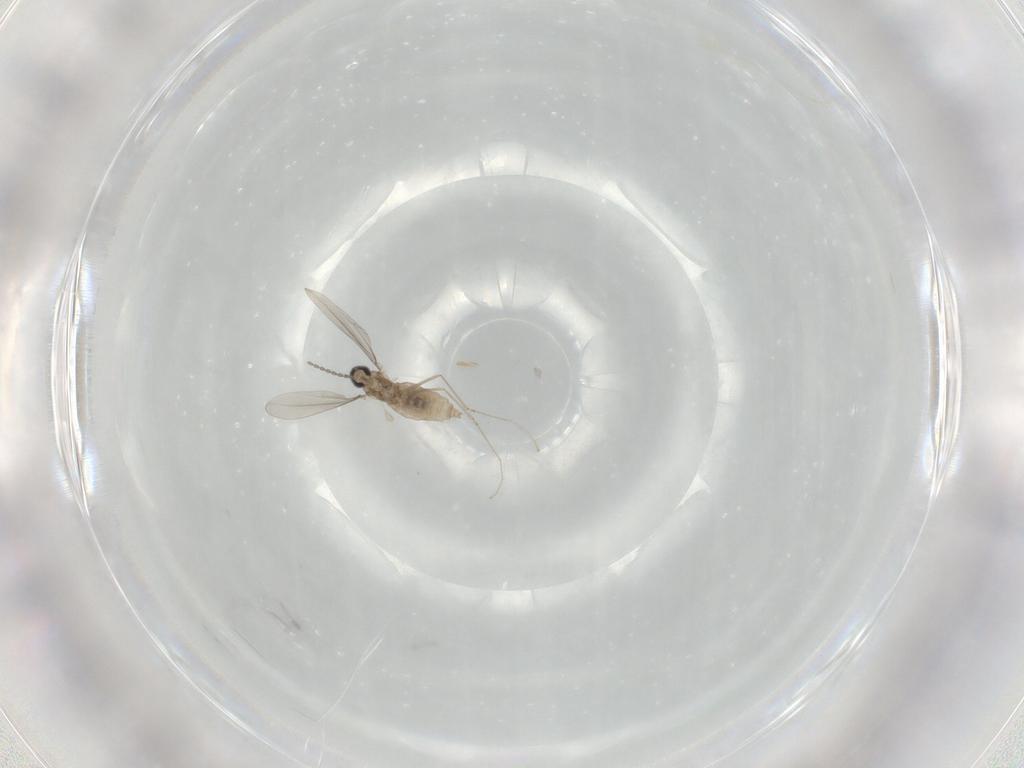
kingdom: Animalia
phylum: Arthropoda
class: Insecta
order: Diptera
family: Cecidomyiidae
